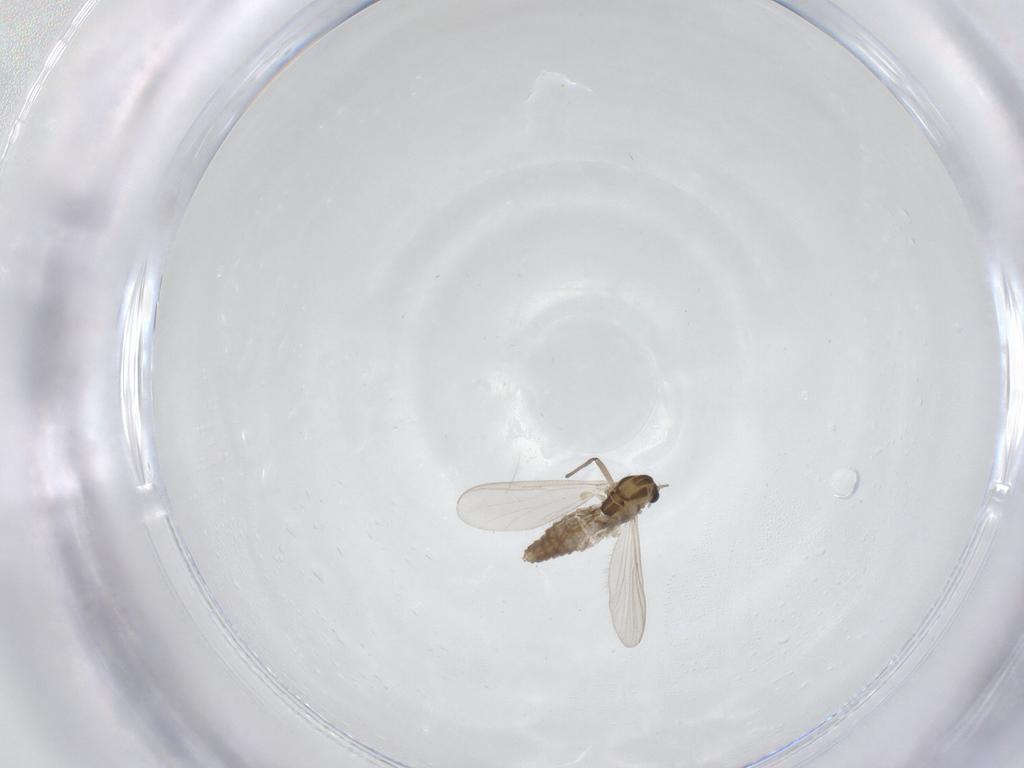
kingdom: Animalia
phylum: Arthropoda
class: Insecta
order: Diptera
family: Chironomidae
